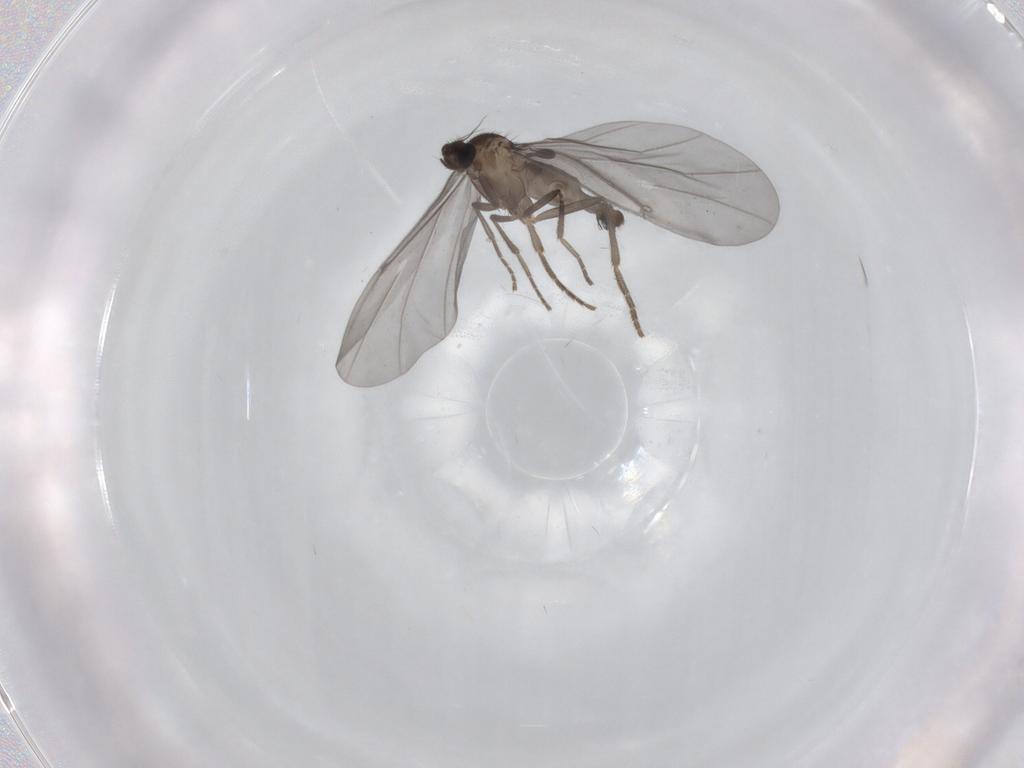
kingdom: Animalia
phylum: Arthropoda
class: Insecta
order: Diptera
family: Phoridae
